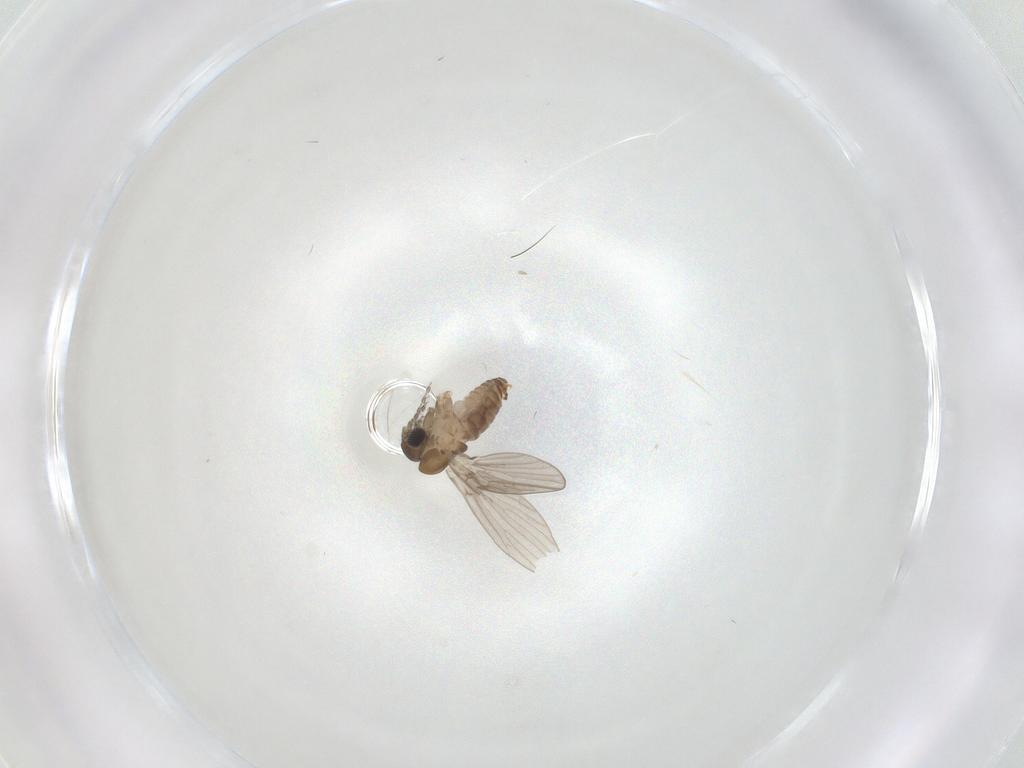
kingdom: Animalia
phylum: Arthropoda
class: Insecta
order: Diptera
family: Psychodidae
